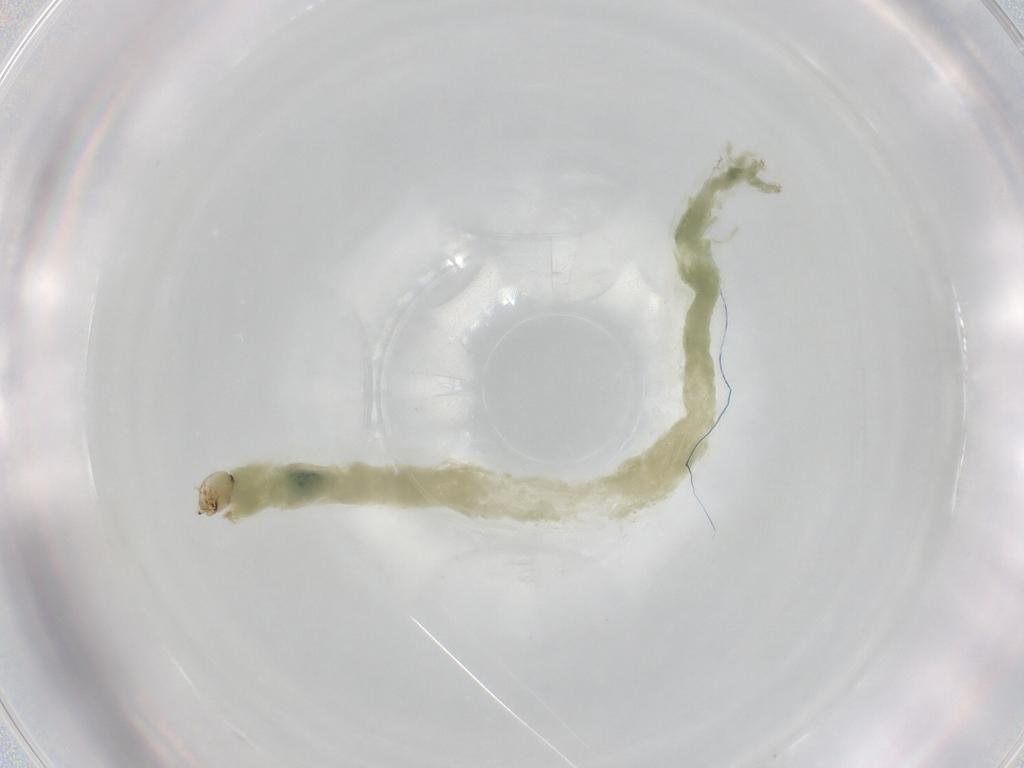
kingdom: Animalia
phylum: Arthropoda
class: Insecta
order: Diptera
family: Chironomidae
